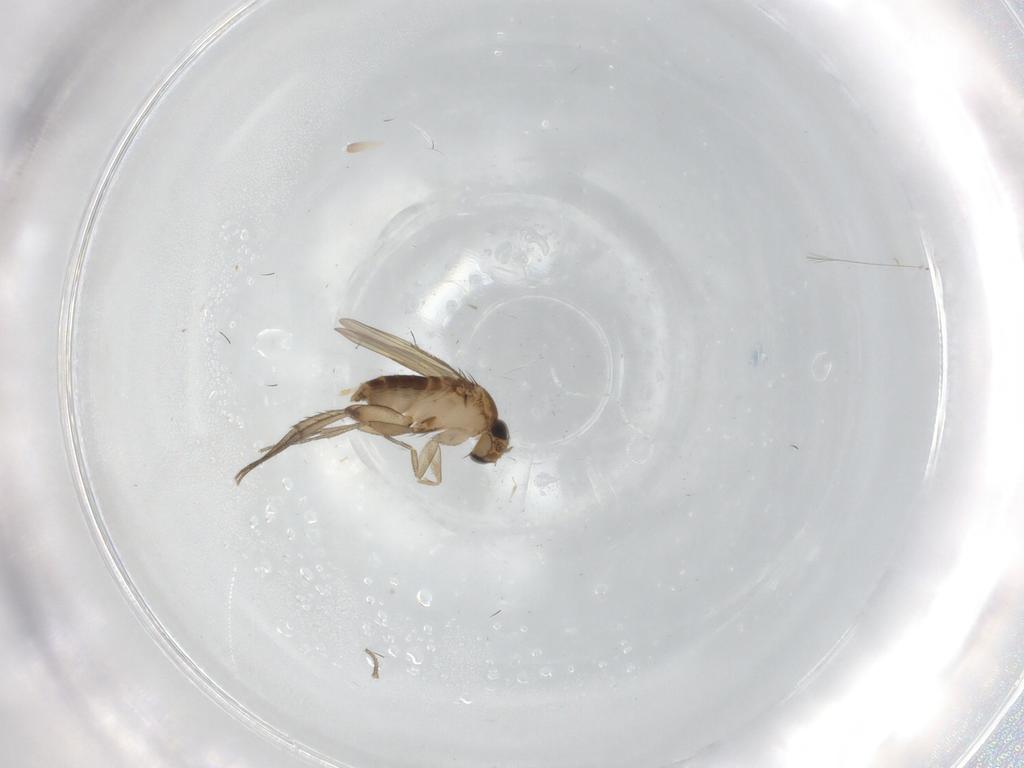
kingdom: Animalia
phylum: Arthropoda
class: Insecta
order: Diptera
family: Phoridae
